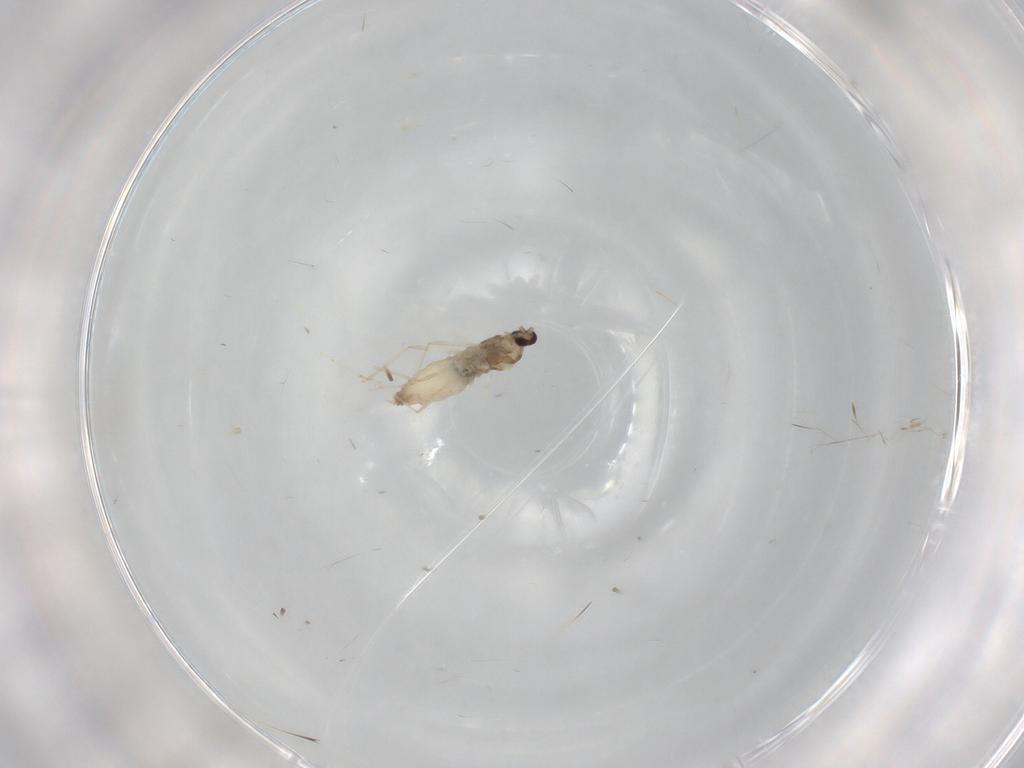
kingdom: Animalia
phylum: Arthropoda
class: Insecta
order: Diptera
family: Cecidomyiidae
